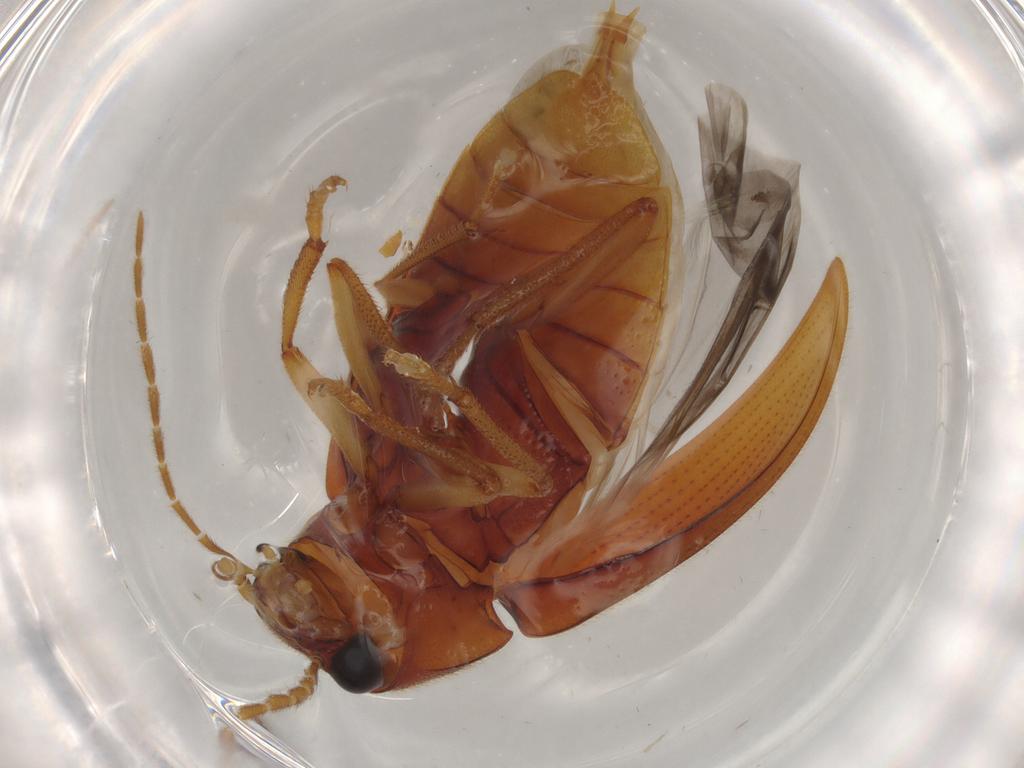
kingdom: Animalia
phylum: Arthropoda
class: Insecta
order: Coleoptera
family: Ptilodactylidae
